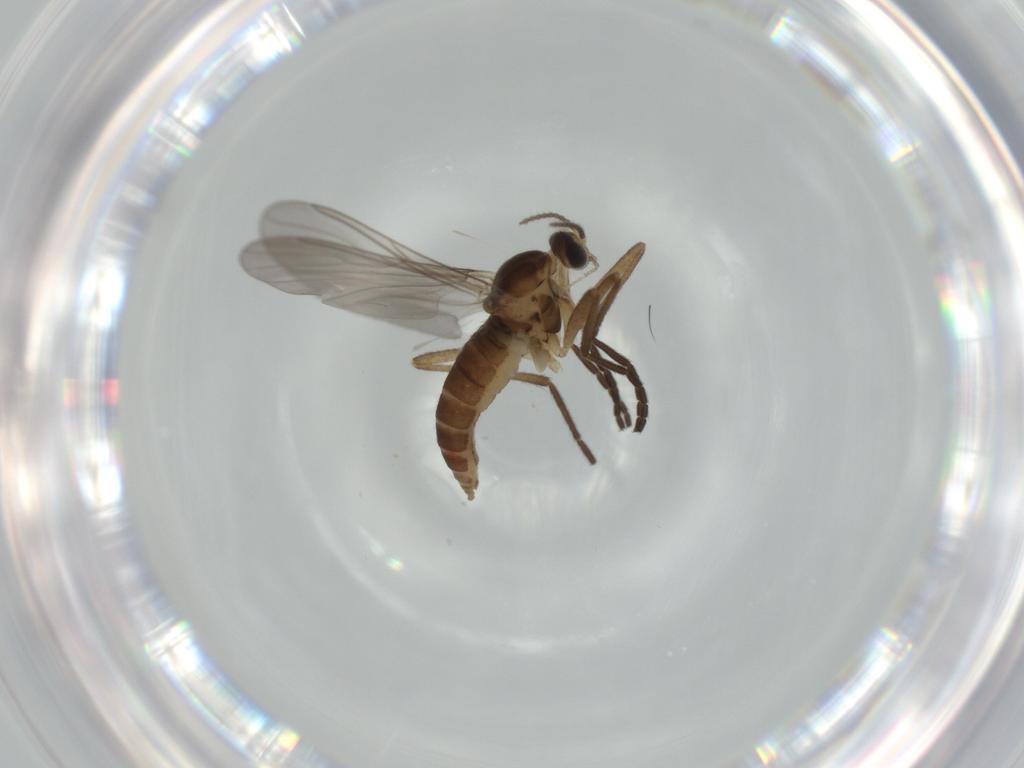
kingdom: Animalia
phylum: Arthropoda
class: Insecta
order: Diptera
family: Cecidomyiidae
